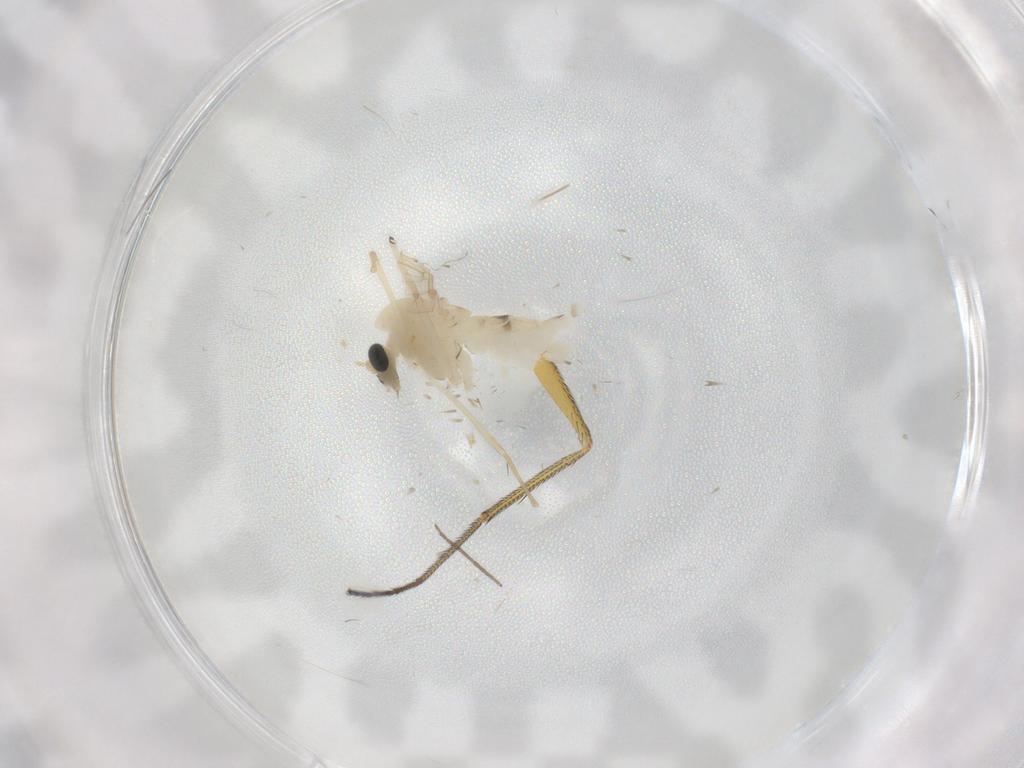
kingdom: Animalia
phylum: Arthropoda
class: Insecta
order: Diptera
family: Chironomidae
